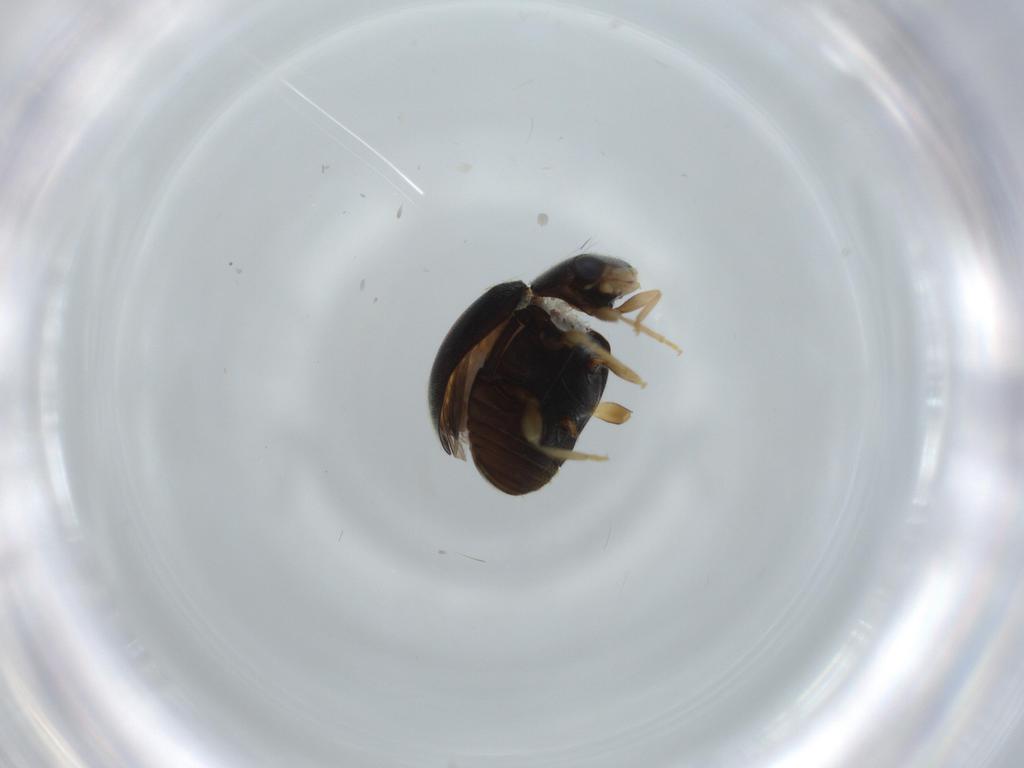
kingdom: Animalia
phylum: Arthropoda
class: Insecta
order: Coleoptera
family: Coccinellidae
